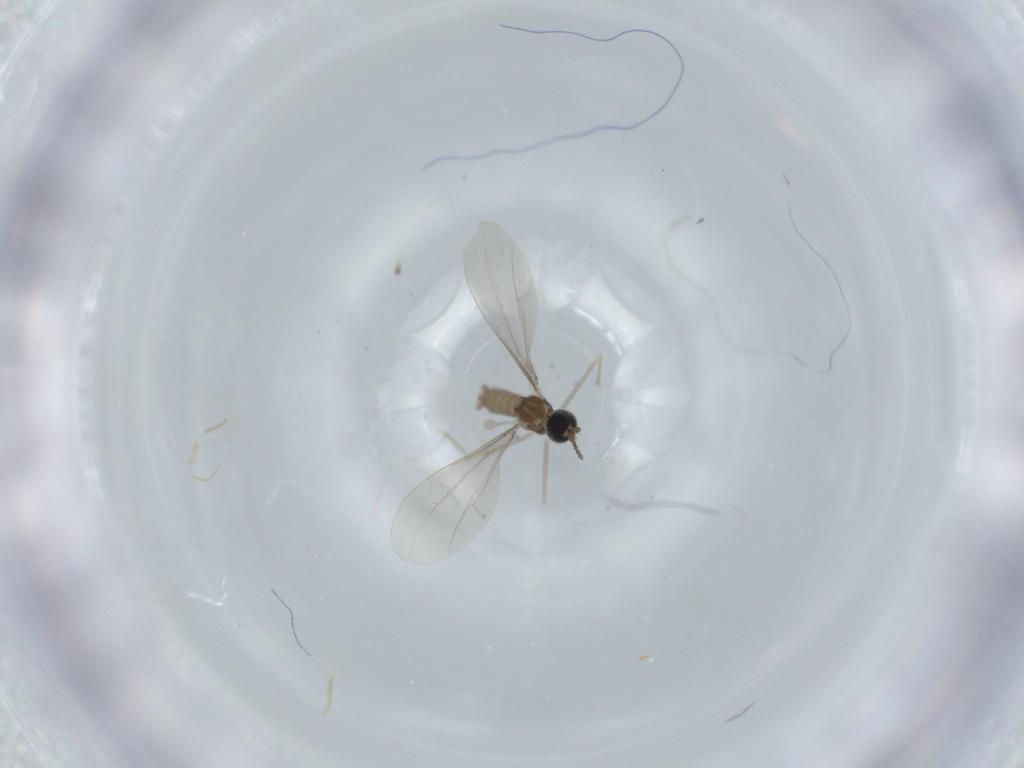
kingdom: Animalia
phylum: Arthropoda
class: Insecta
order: Diptera
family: Cecidomyiidae
